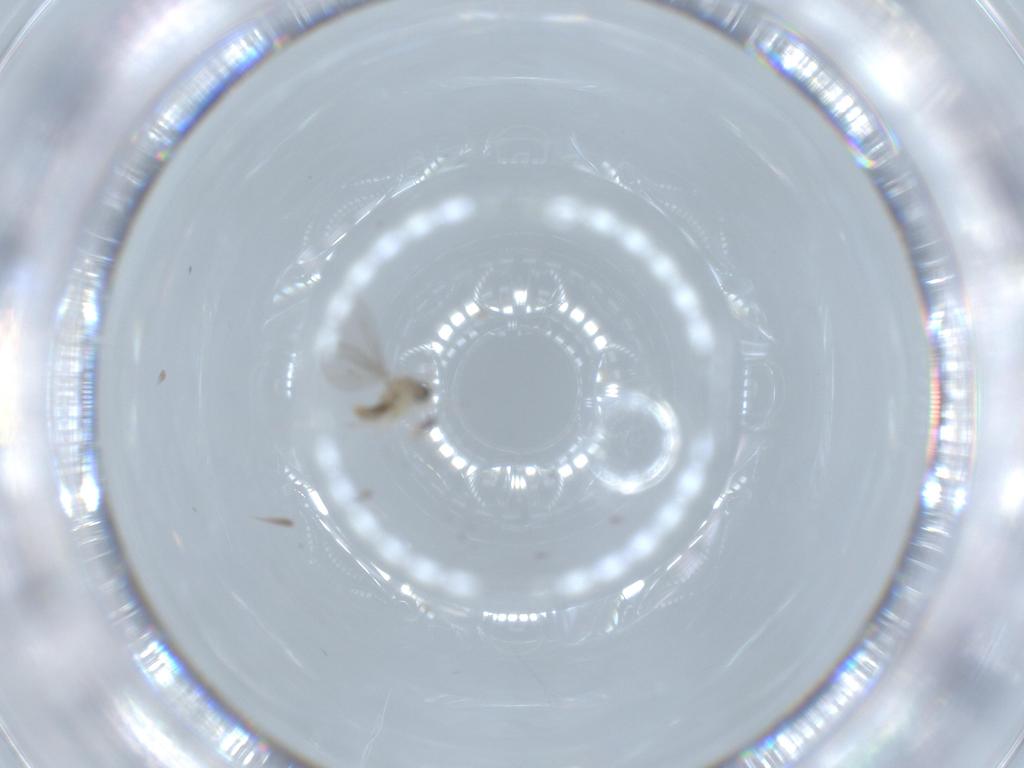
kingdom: Animalia
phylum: Arthropoda
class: Insecta
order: Diptera
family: Cecidomyiidae
